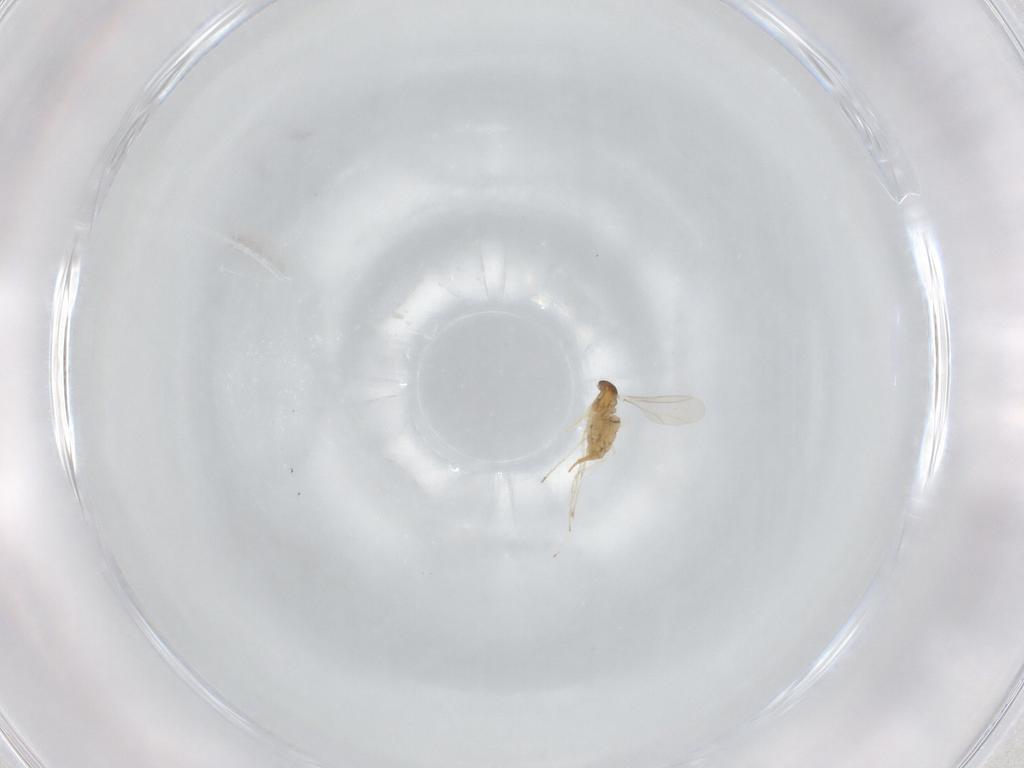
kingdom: Animalia
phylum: Arthropoda
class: Insecta
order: Diptera
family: Cecidomyiidae
